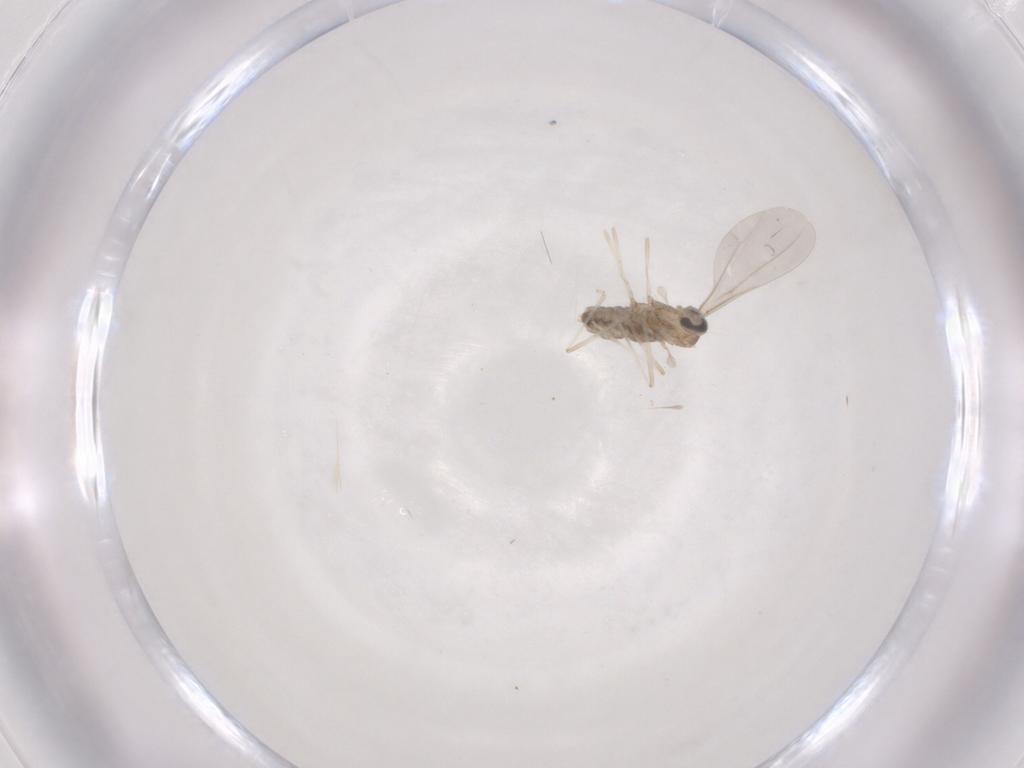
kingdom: Animalia
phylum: Arthropoda
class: Insecta
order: Diptera
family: Cecidomyiidae
